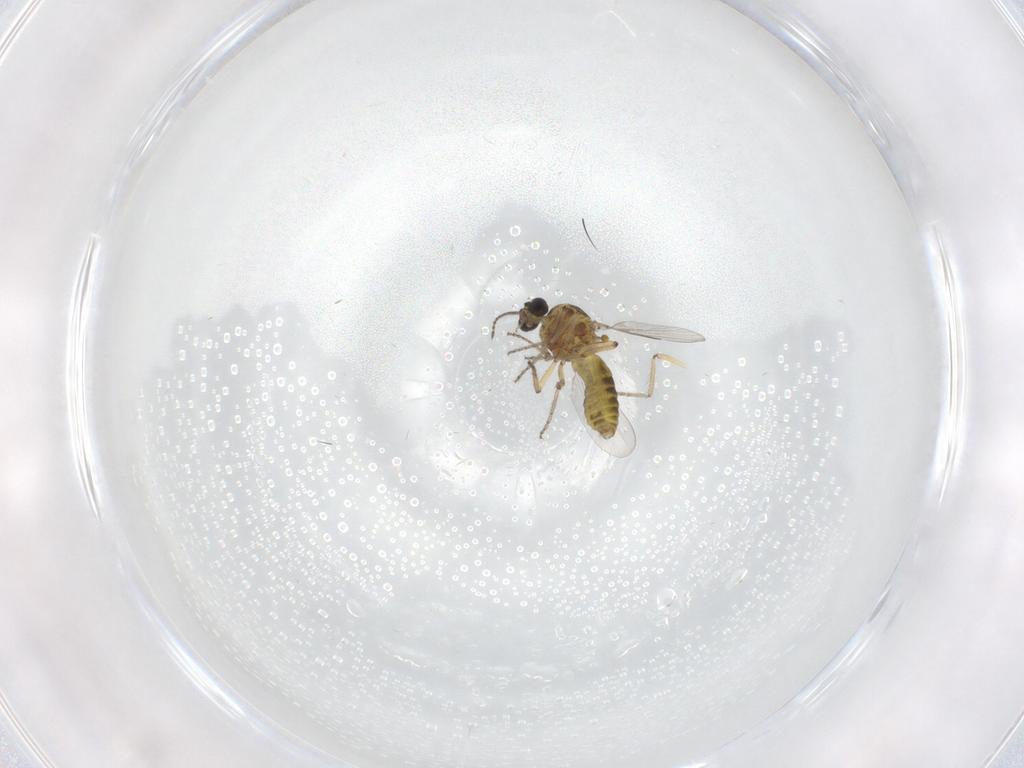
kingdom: Animalia
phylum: Arthropoda
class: Insecta
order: Diptera
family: Ceratopogonidae
